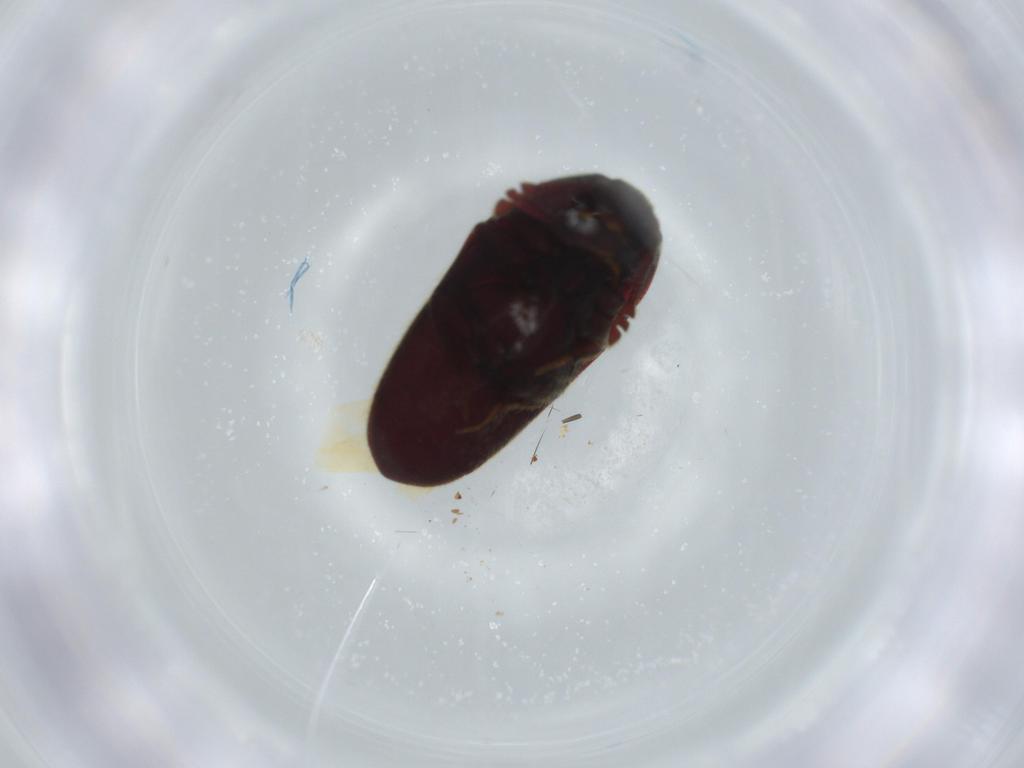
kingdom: Animalia
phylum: Arthropoda
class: Insecta
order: Coleoptera
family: Throscidae
